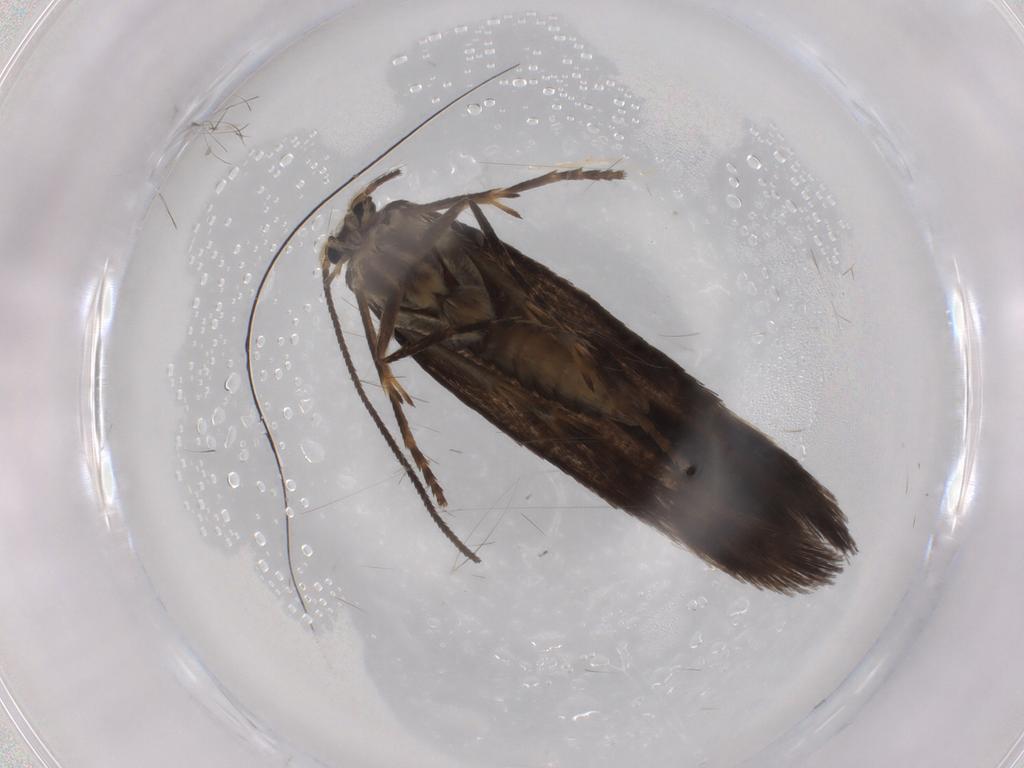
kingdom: Animalia
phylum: Arthropoda
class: Insecta
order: Lepidoptera
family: Nepticulidae
